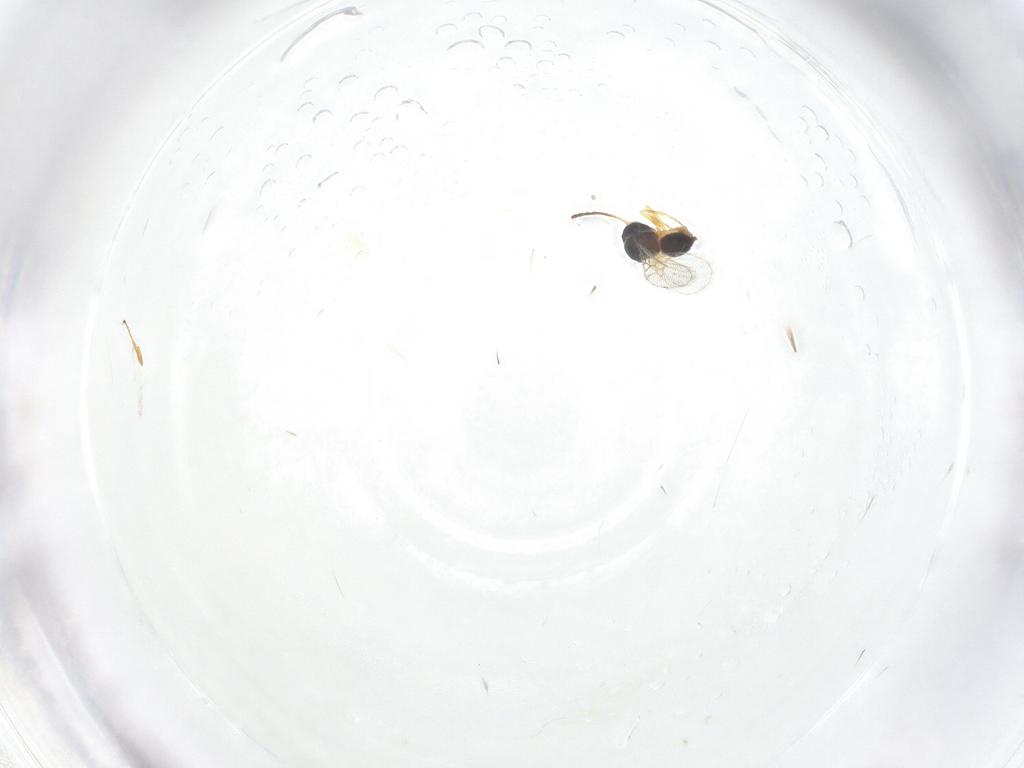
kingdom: Animalia
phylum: Arthropoda
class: Insecta
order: Hymenoptera
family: Figitidae
